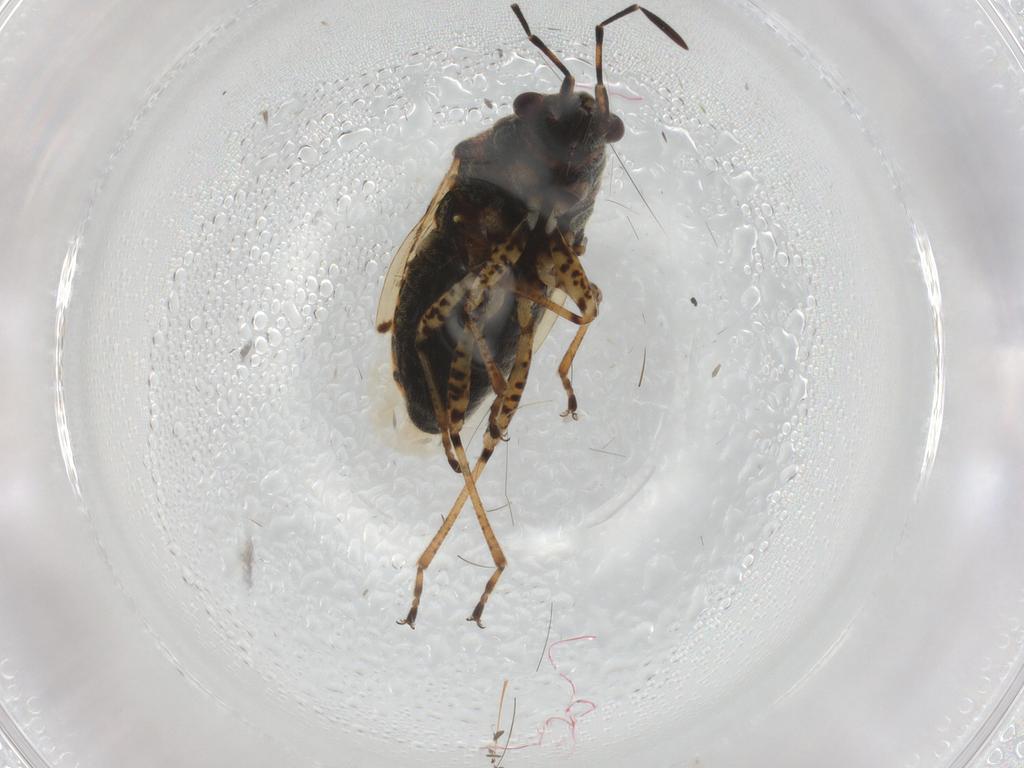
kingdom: Animalia
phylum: Arthropoda
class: Insecta
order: Hemiptera
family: Lygaeidae
